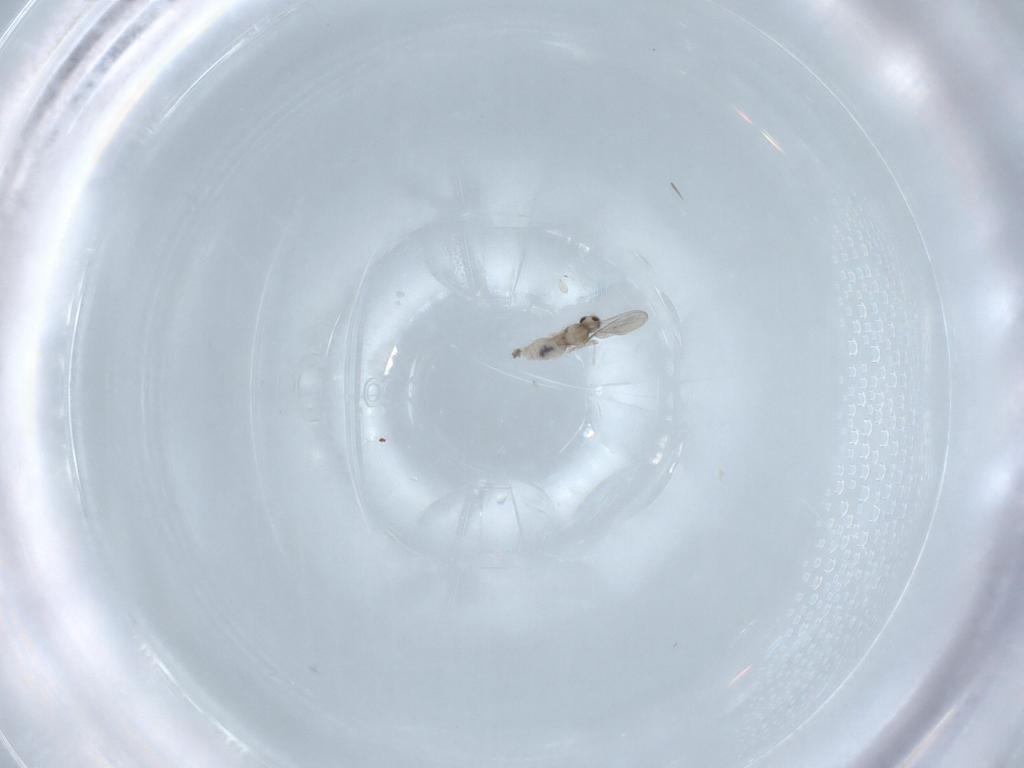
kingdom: Animalia
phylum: Arthropoda
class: Insecta
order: Diptera
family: Cecidomyiidae
